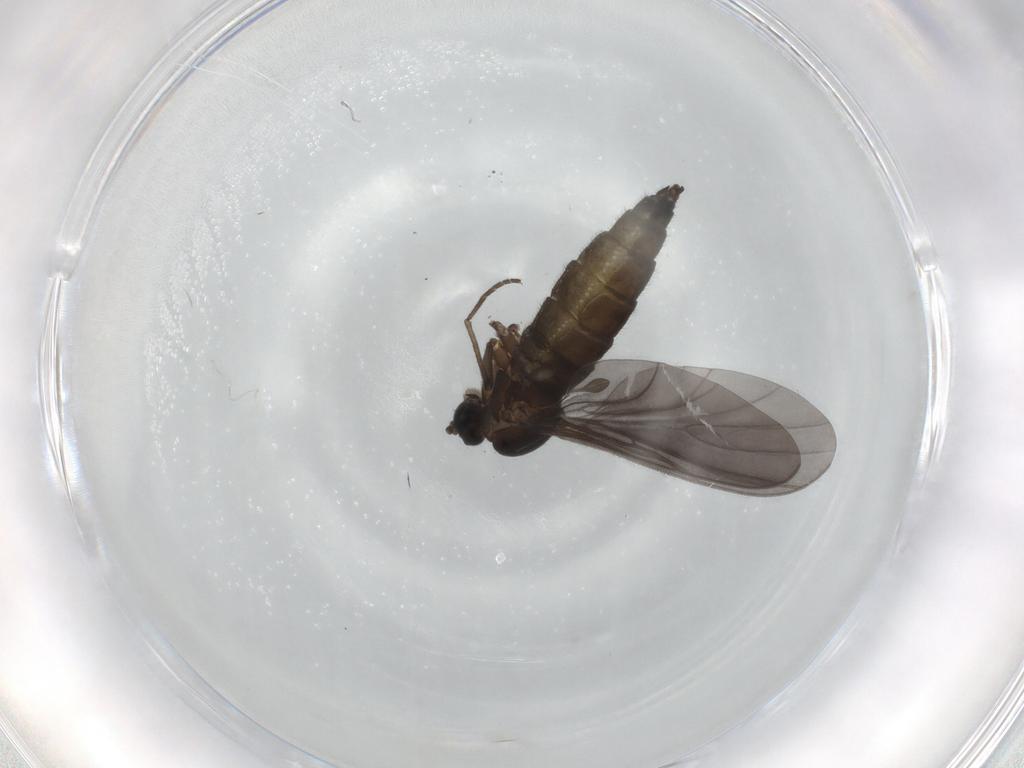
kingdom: Animalia
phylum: Arthropoda
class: Insecta
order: Diptera
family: Sciaridae
